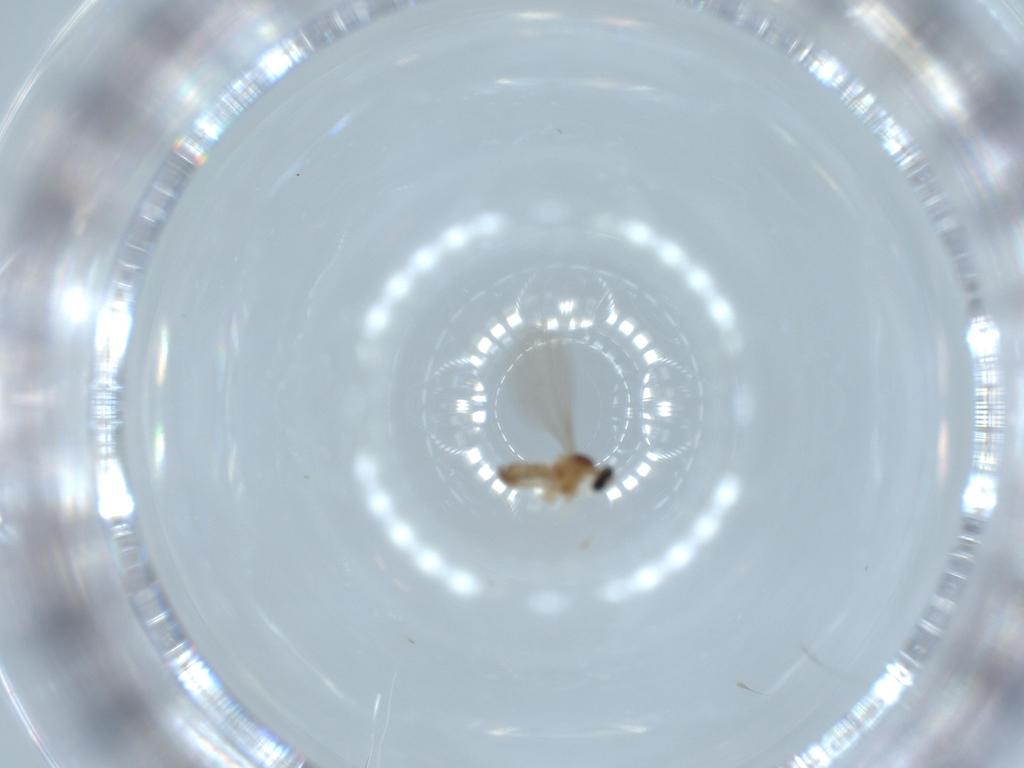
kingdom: Animalia
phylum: Arthropoda
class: Insecta
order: Diptera
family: Cecidomyiidae
